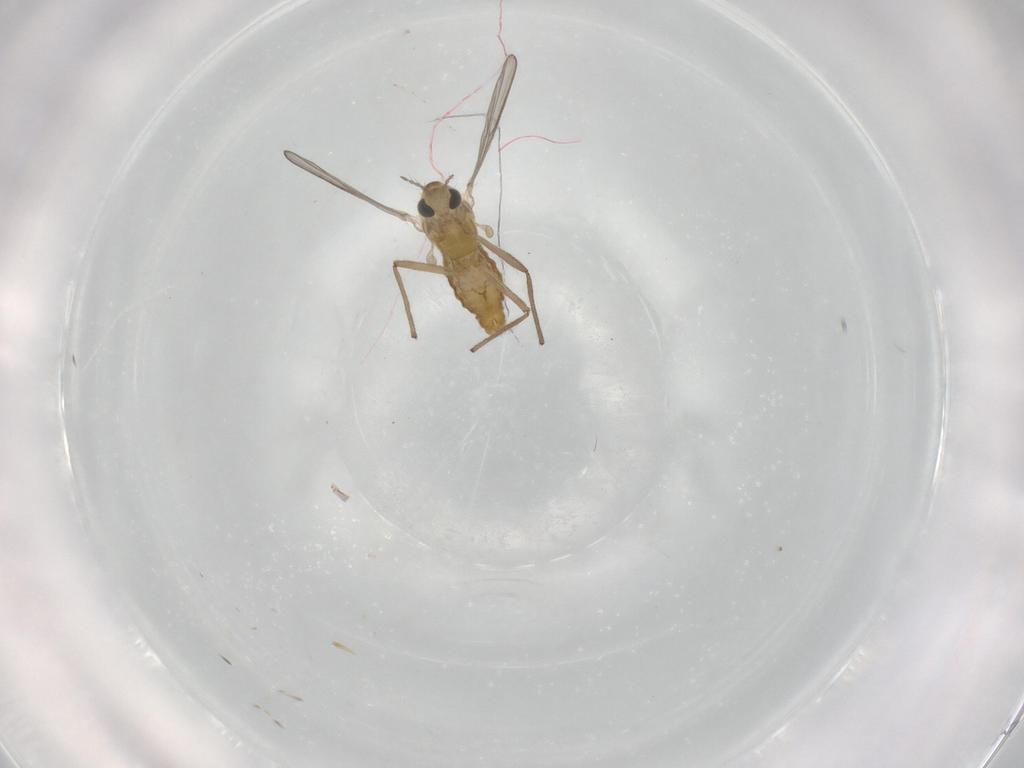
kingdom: Animalia
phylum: Arthropoda
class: Insecta
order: Diptera
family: Chironomidae
